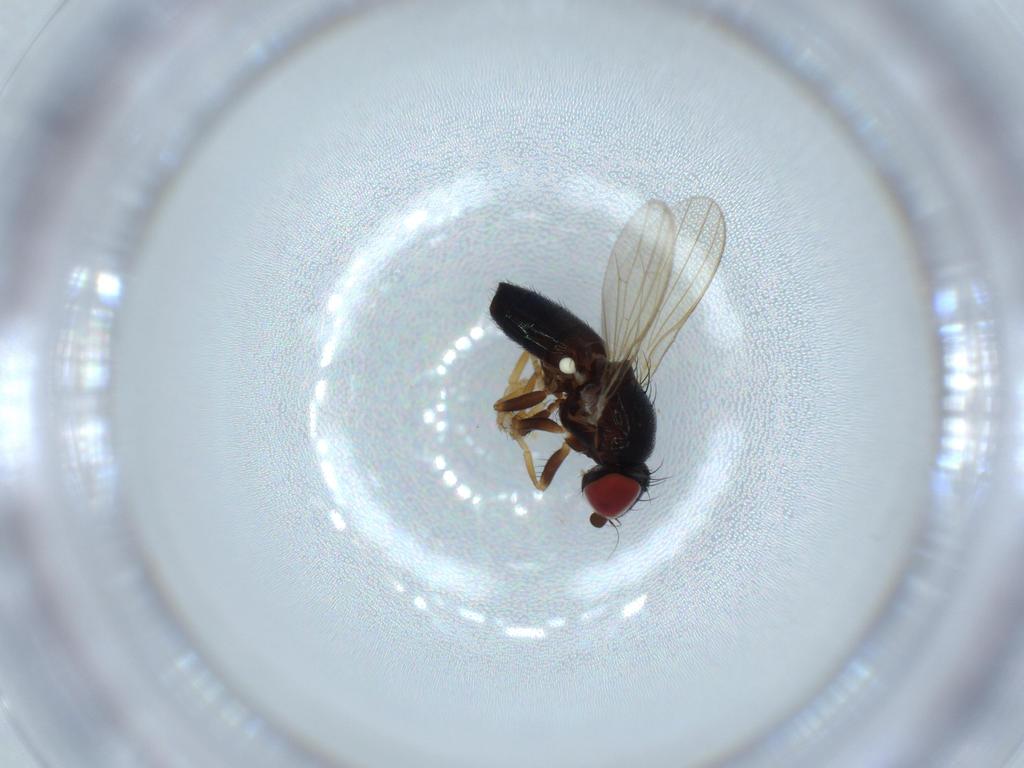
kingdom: Animalia
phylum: Arthropoda
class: Insecta
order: Diptera
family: Chamaemyiidae
